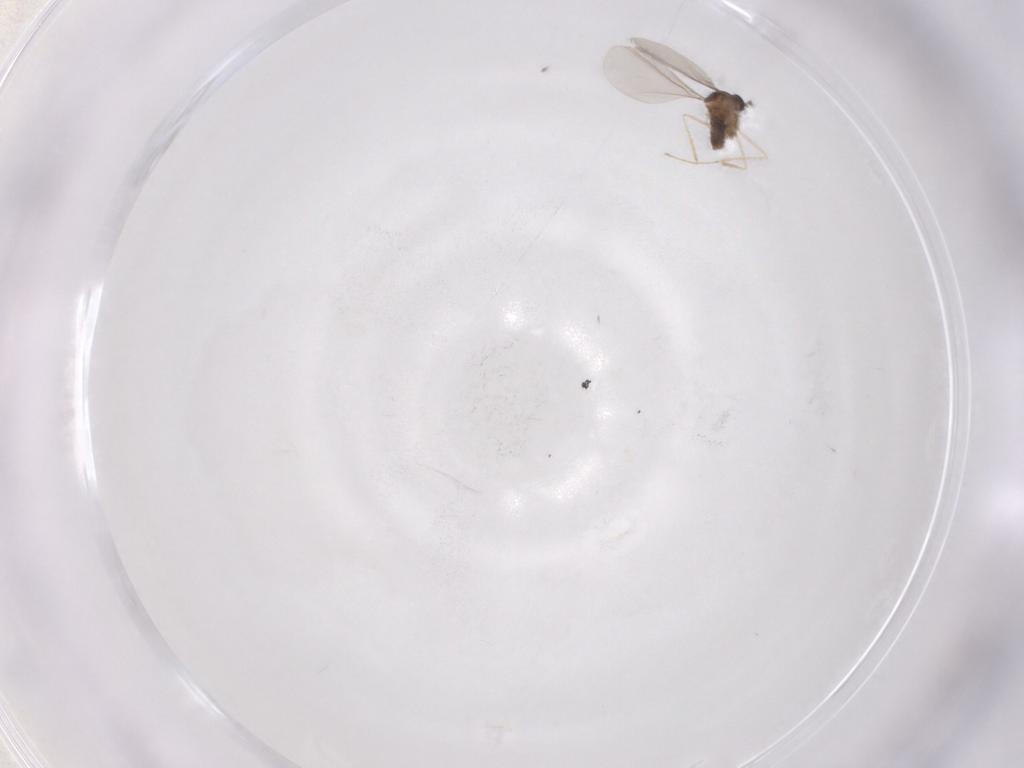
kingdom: Animalia
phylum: Arthropoda
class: Insecta
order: Diptera
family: Cecidomyiidae
